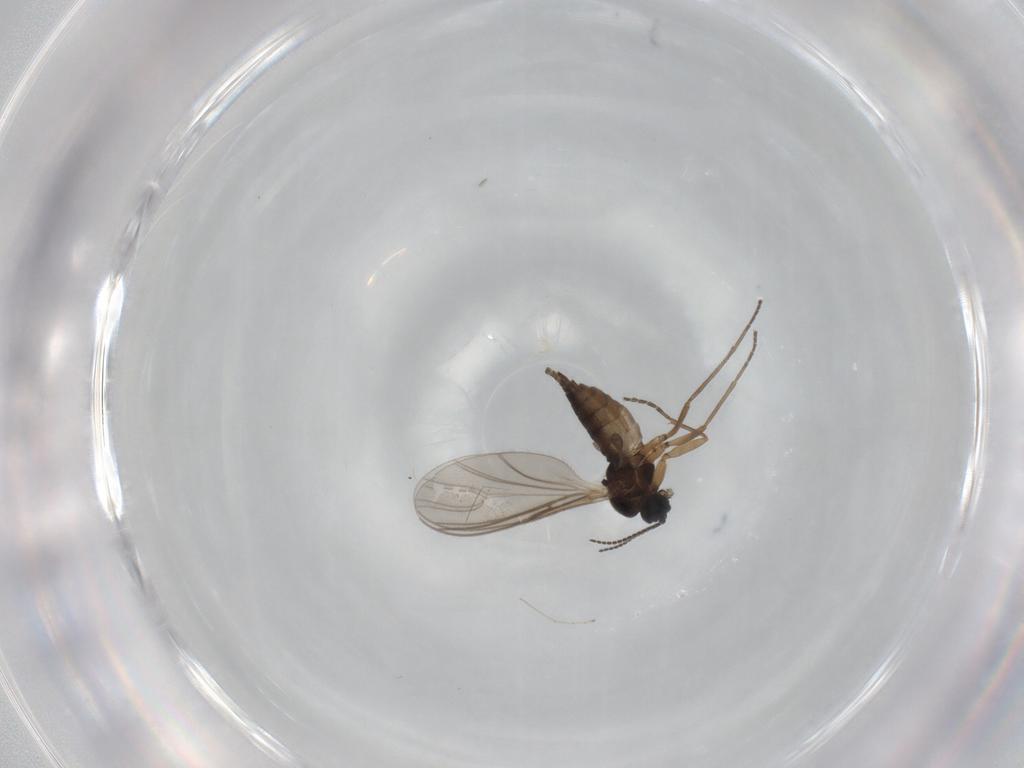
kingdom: Animalia
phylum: Arthropoda
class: Insecta
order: Diptera
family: Sciaridae
